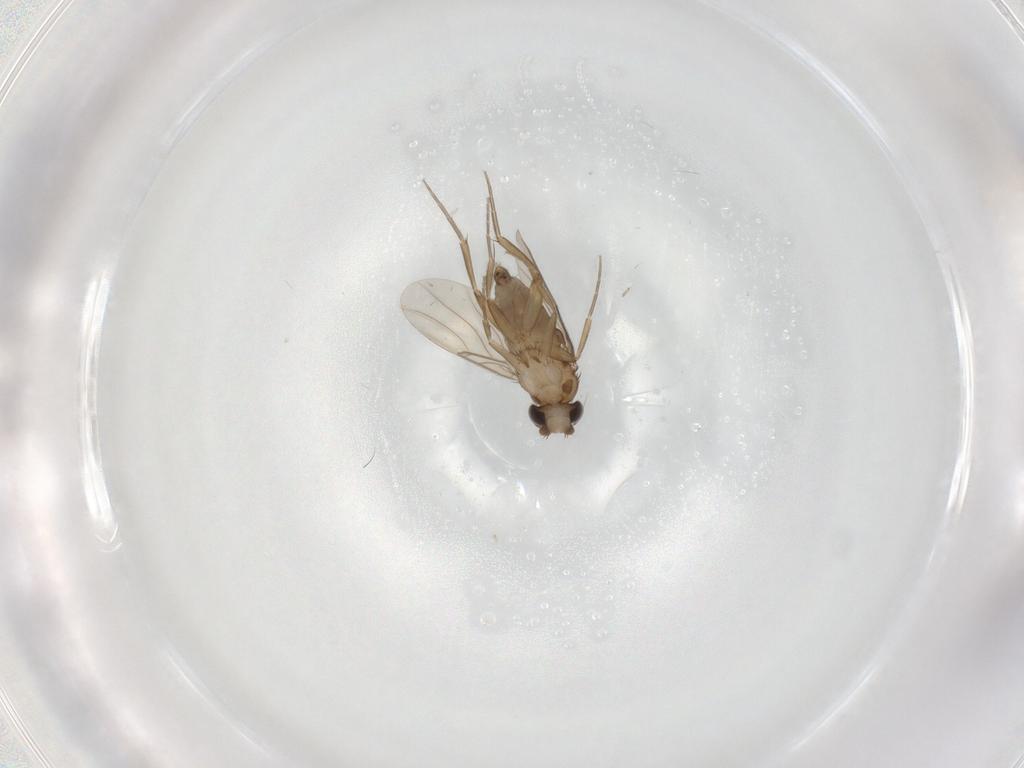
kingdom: Animalia
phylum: Arthropoda
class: Insecta
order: Diptera
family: Phoridae
